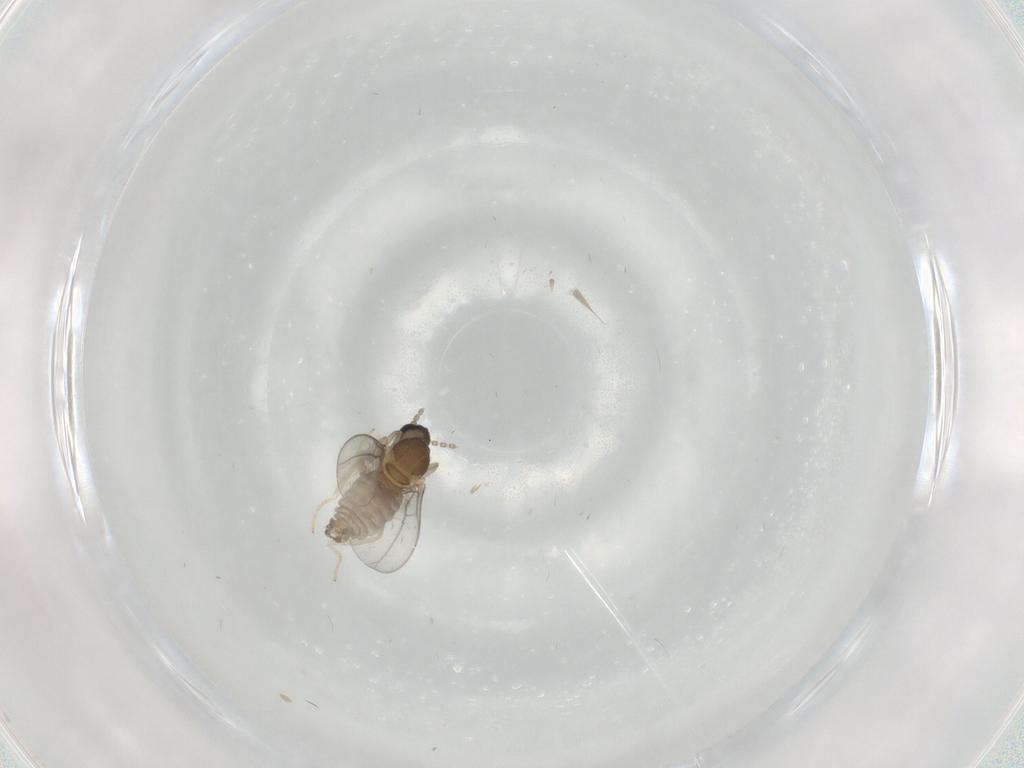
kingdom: Animalia
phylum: Arthropoda
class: Insecta
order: Diptera
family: Cecidomyiidae
